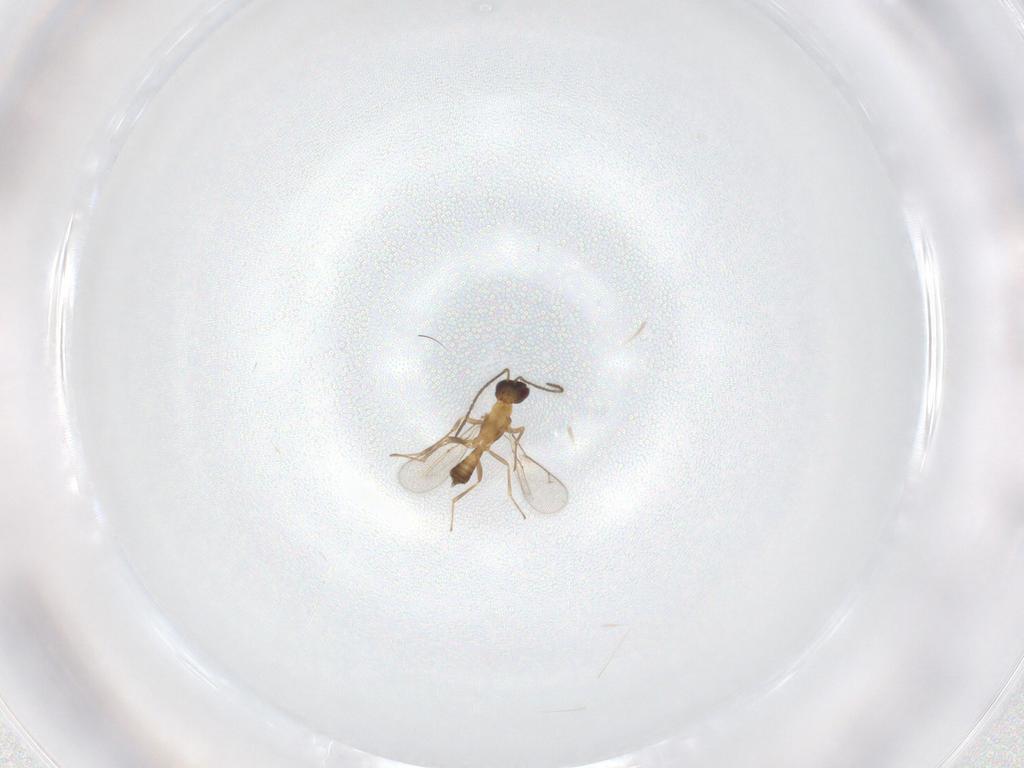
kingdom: Animalia
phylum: Arthropoda
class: Insecta
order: Hymenoptera
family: Eupelmidae
